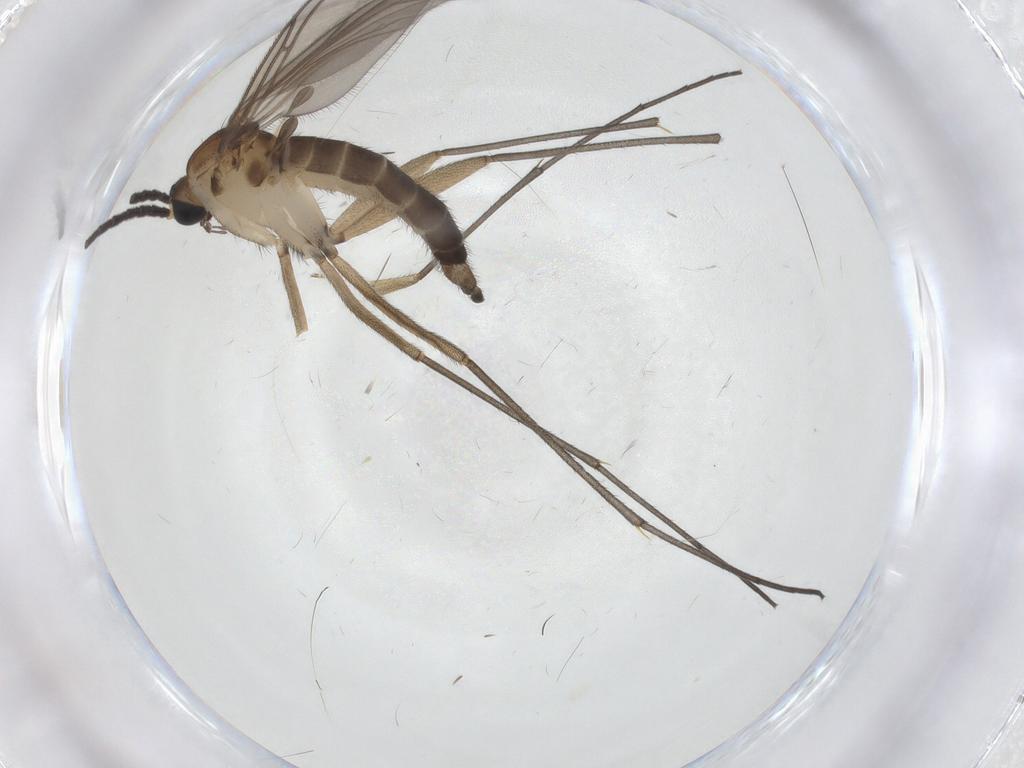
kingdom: Animalia
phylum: Arthropoda
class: Insecta
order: Diptera
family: Sciaridae
